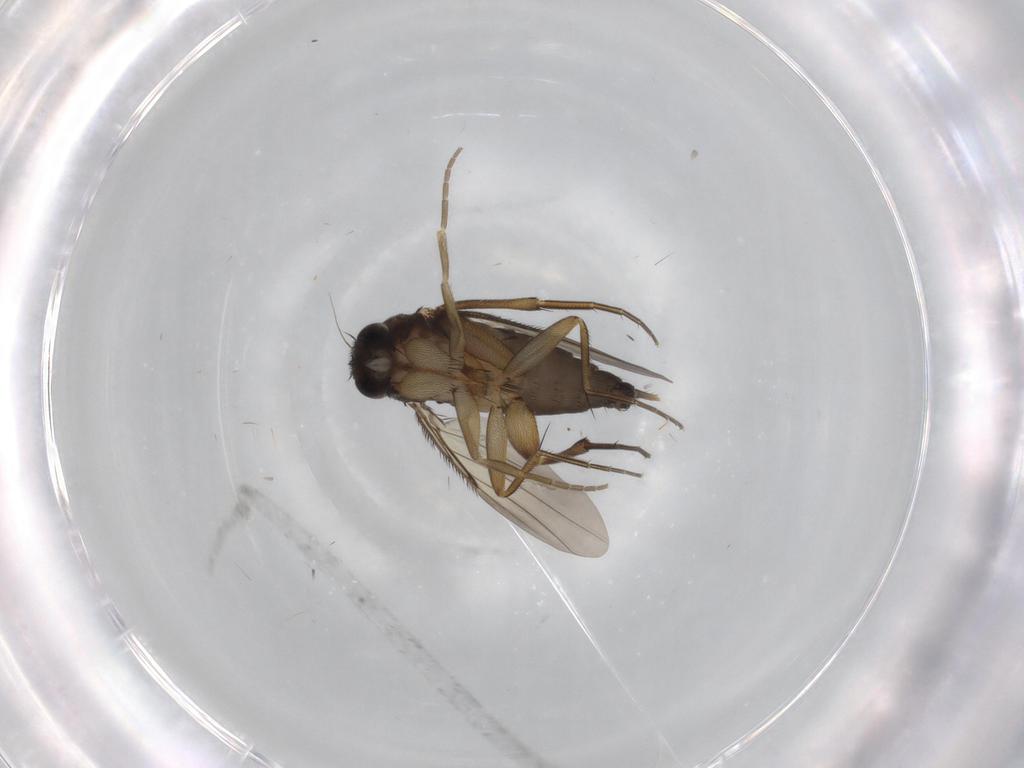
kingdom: Animalia
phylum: Arthropoda
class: Insecta
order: Diptera
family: Phoridae
